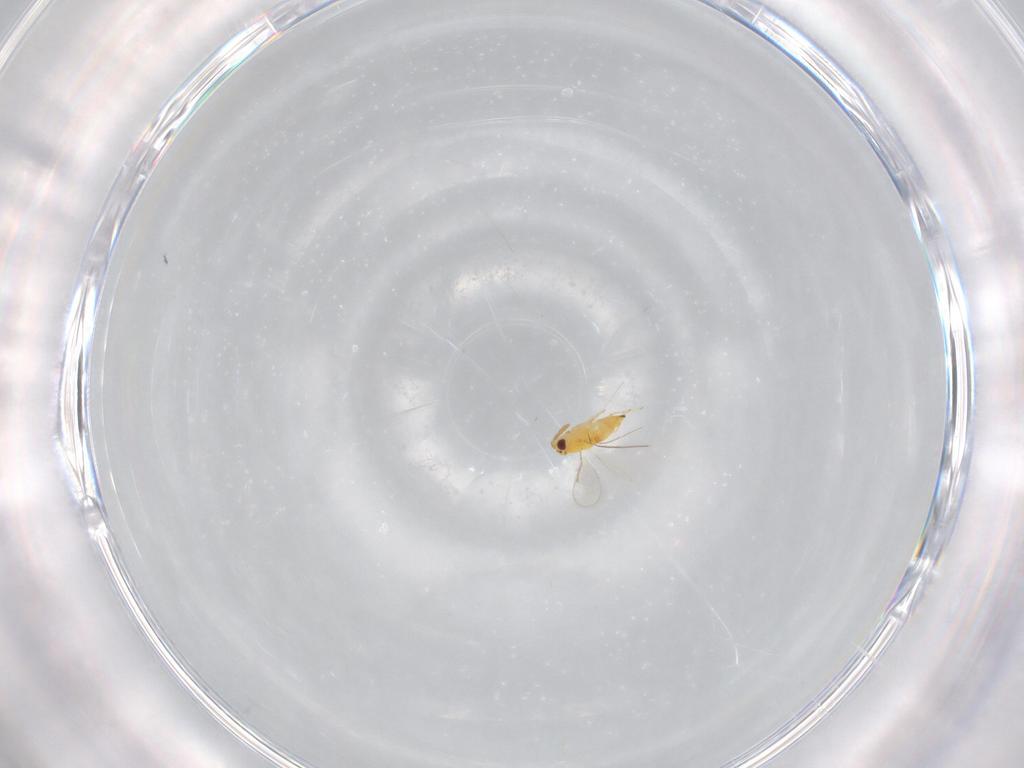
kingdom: Animalia
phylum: Arthropoda
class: Insecta
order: Hymenoptera
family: Aphelinidae
